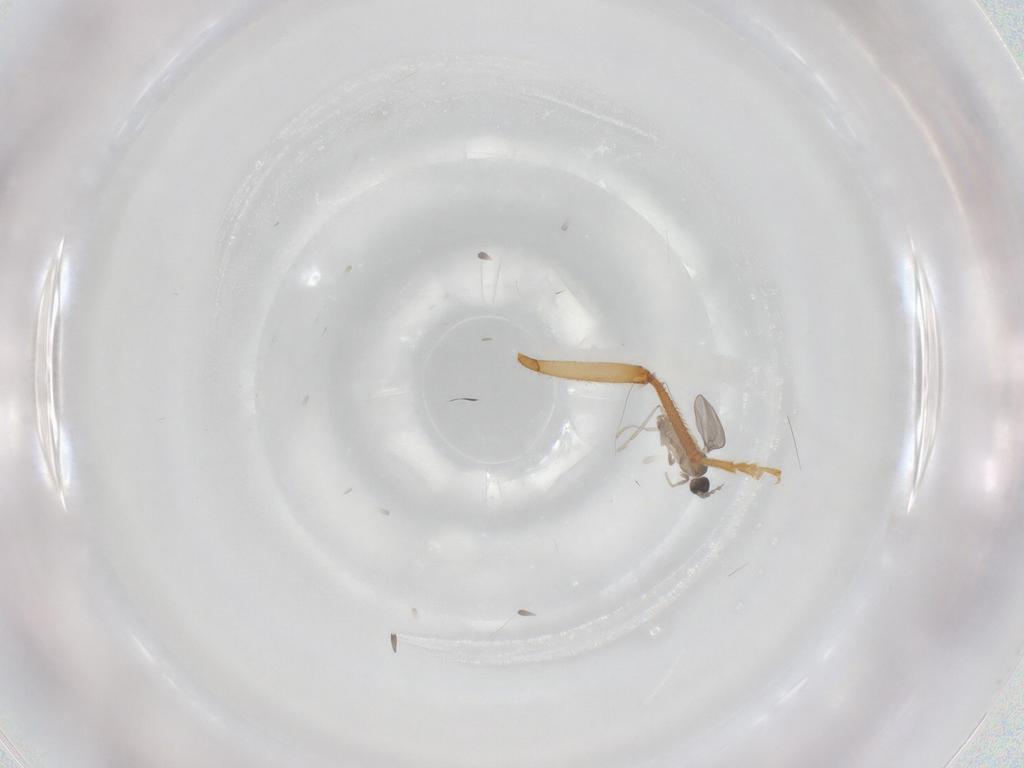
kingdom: Animalia
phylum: Arthropoda
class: Insecta
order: Diptera
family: Cecidomyiidae
